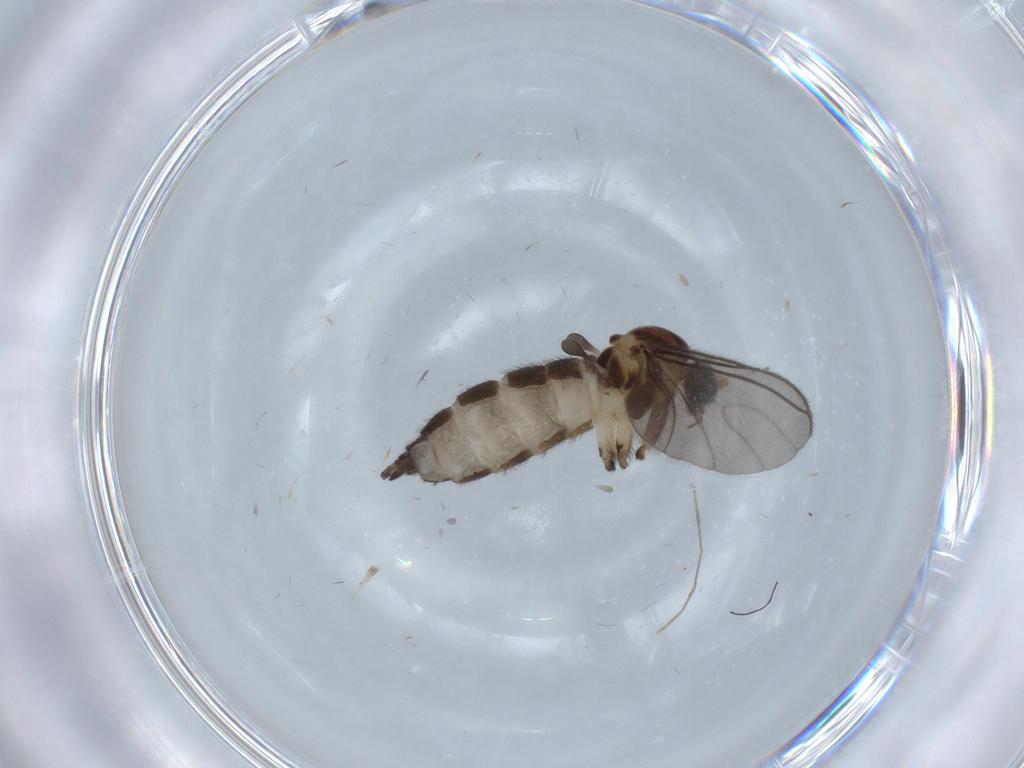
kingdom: Animalia
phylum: Arthropoda
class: Insecta
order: Diptera
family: Sciaridae
